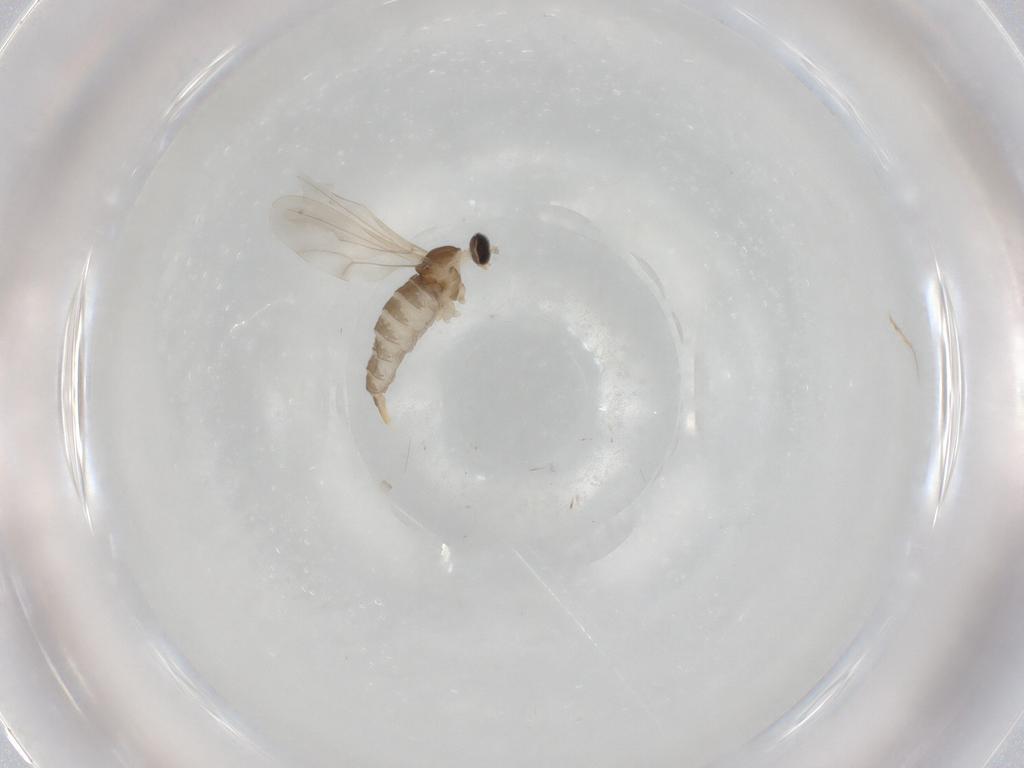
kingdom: Animalia
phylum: Arthropoda
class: Insecta
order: Diptera
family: Cecidomyiidae
